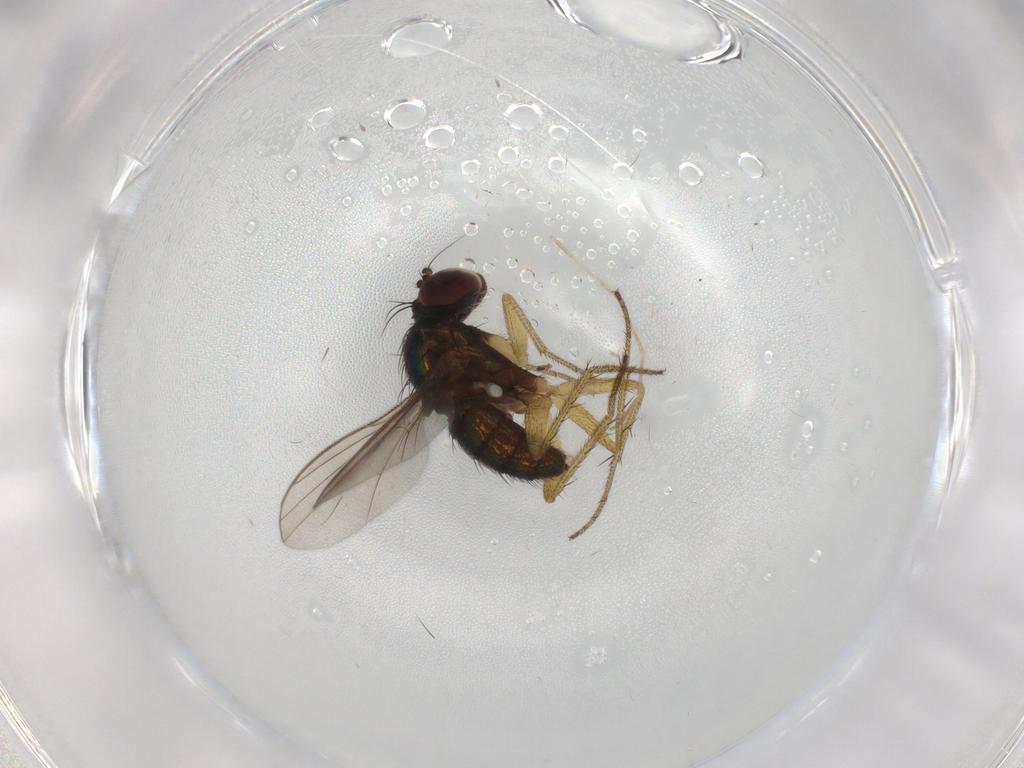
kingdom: Animalia
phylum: Arthropoda
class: Insecta
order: Diptera
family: Dolichopodidae
